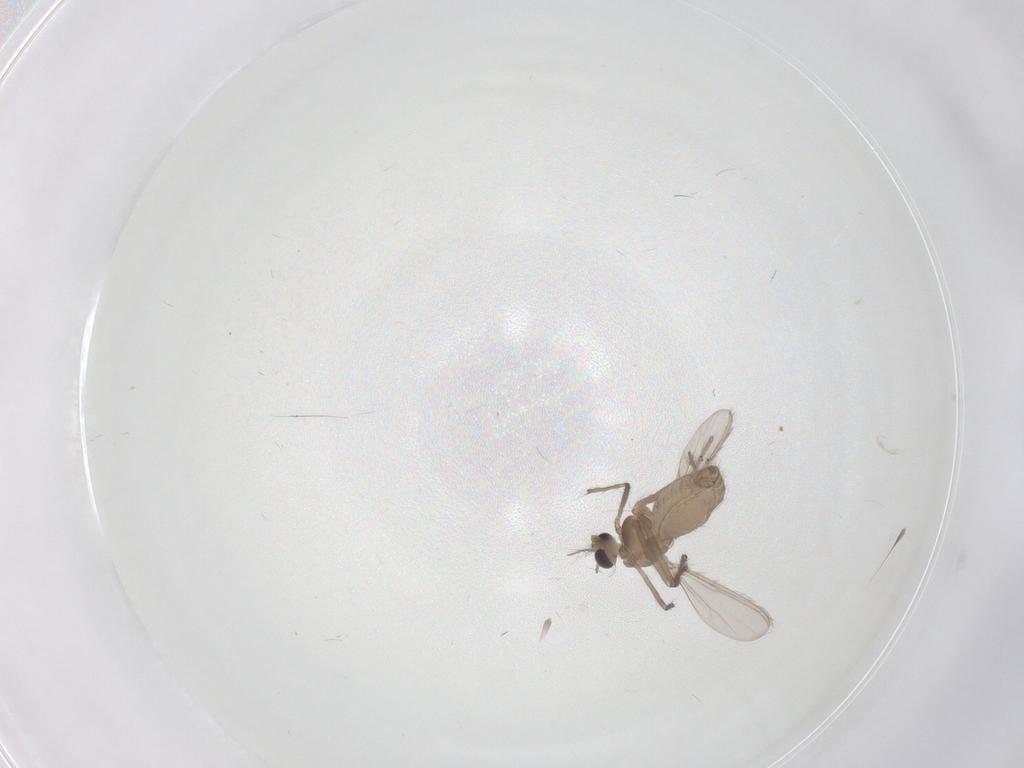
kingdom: Animalia
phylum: Arthropoda
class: Insecta
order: Diptera
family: Chironomidae
